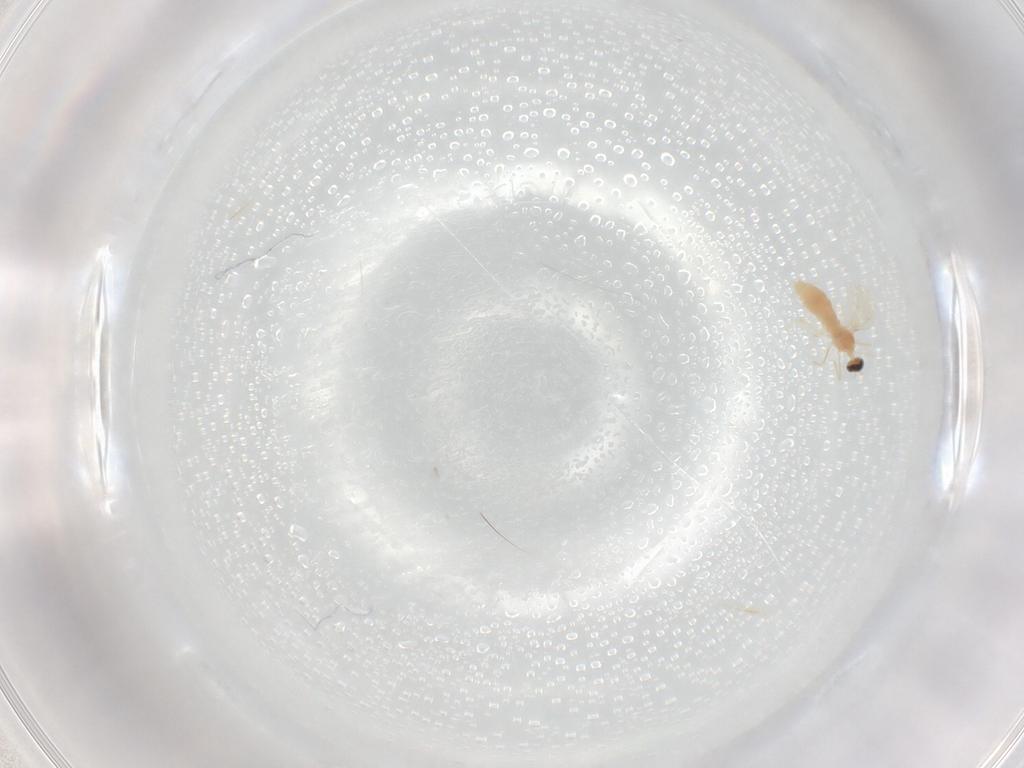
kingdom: Animalia
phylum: Arthropoda
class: Insecta
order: Diptera
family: Cecidomyiidae
